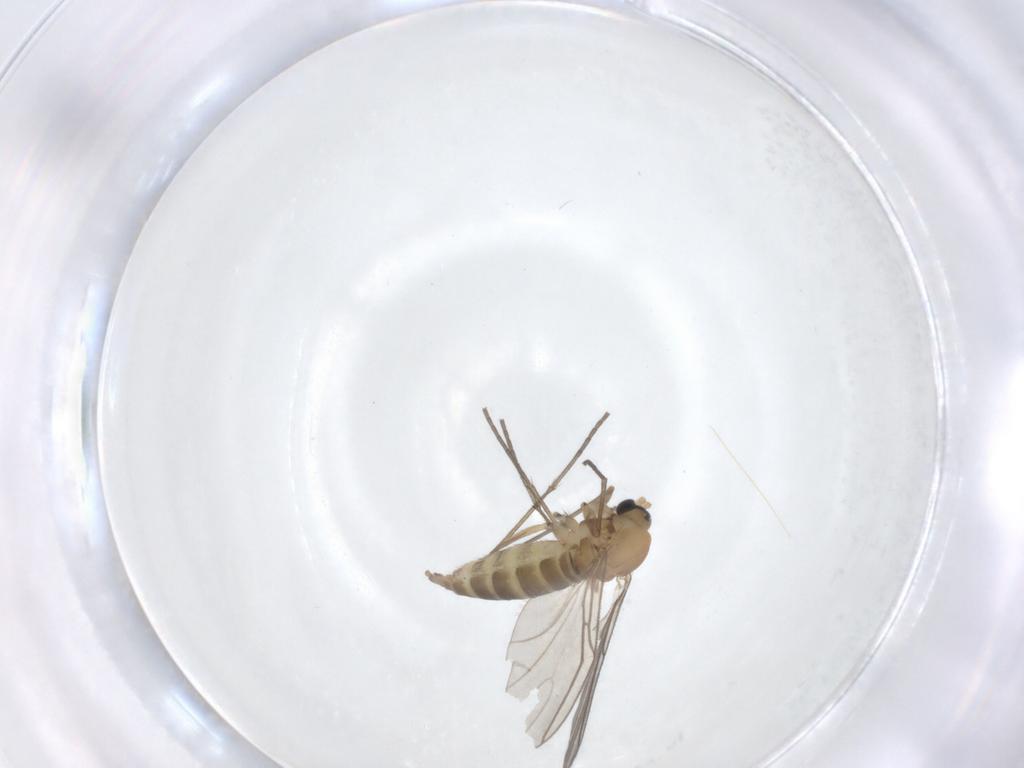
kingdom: Animalia
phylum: Arthropoda
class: Insecta
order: Diptera
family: Sciaridae
